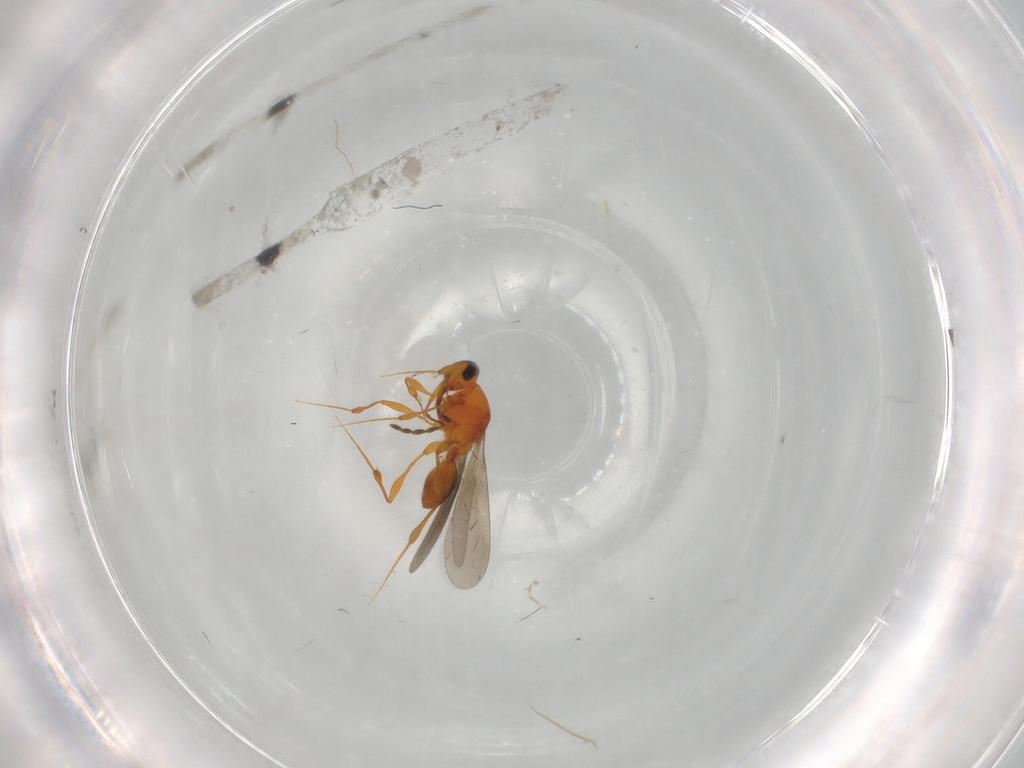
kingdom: Animalia
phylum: Arthropoda
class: Insecta
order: Hymenoptera
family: Platygastridae
